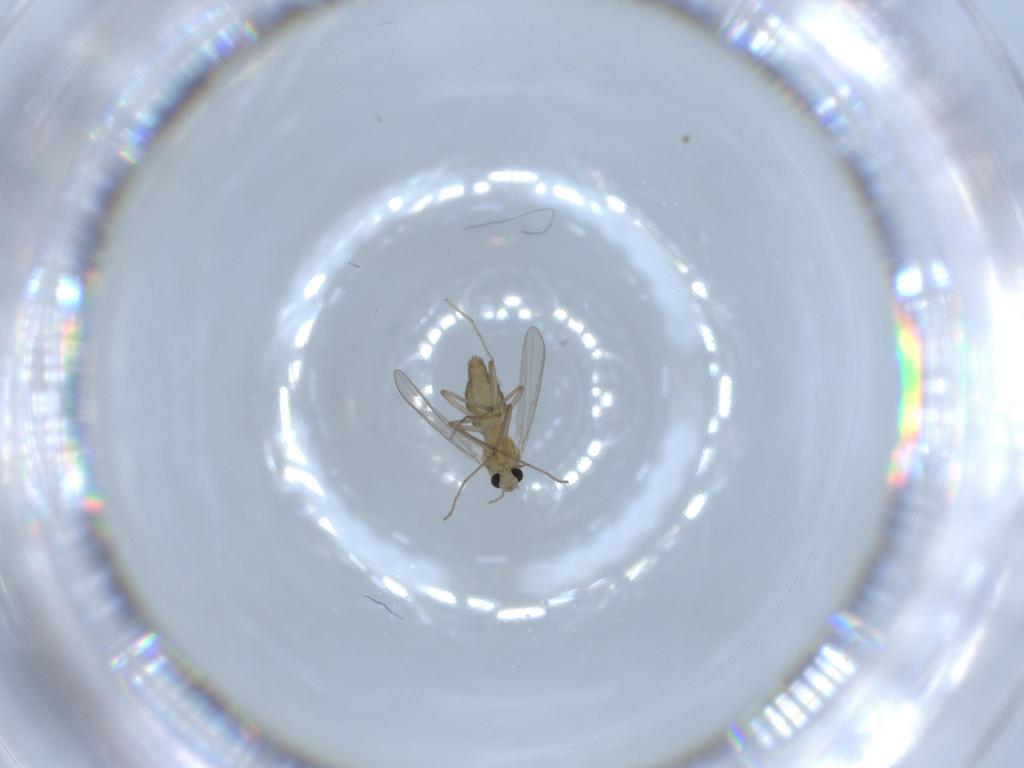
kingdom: Animalia
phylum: Arthropoda
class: Insecta
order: Diptera
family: Chironomidae
